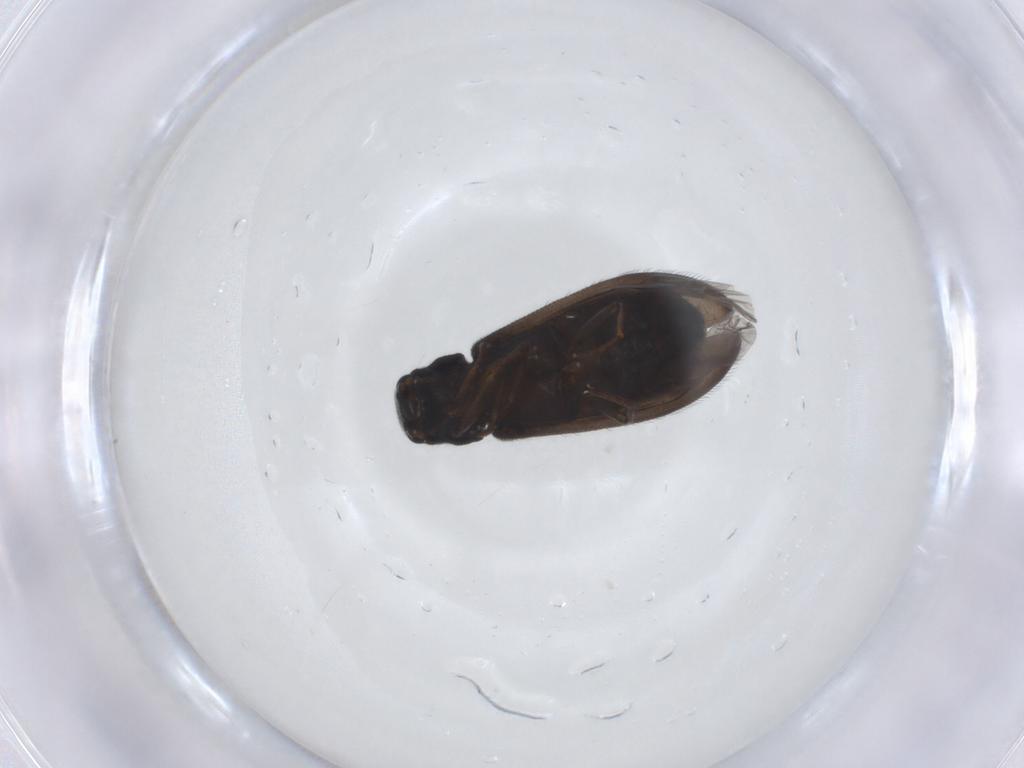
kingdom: Animalia
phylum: Arthropoda
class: Insecta
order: Coleoptera
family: Melyridae
